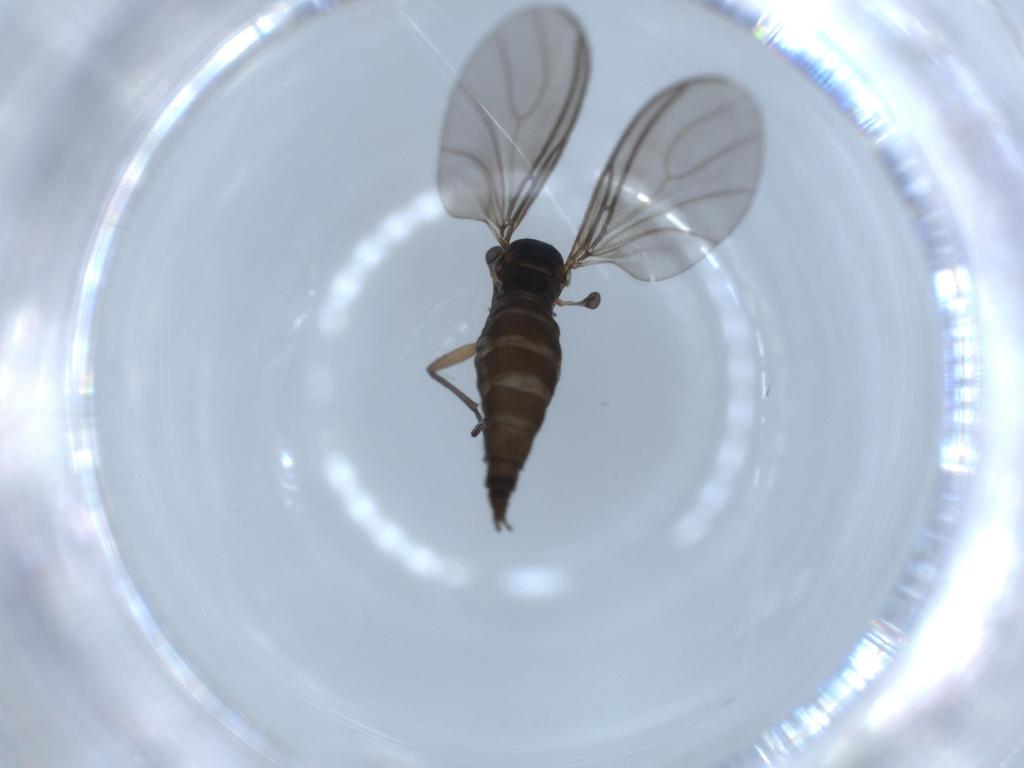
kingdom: Animalia
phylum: Arthropoda
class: Insecta
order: Diptera
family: Sciaridae
